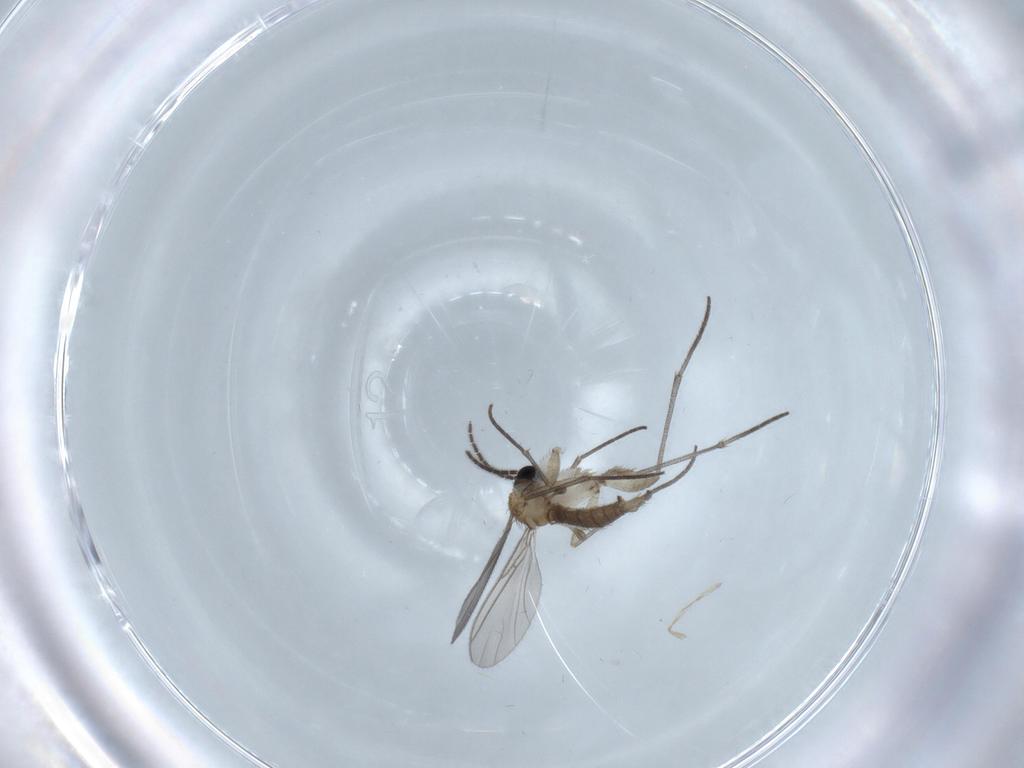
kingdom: Animalia
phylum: Arthropoda
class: Insecta
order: Diptera
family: Sciaridae
